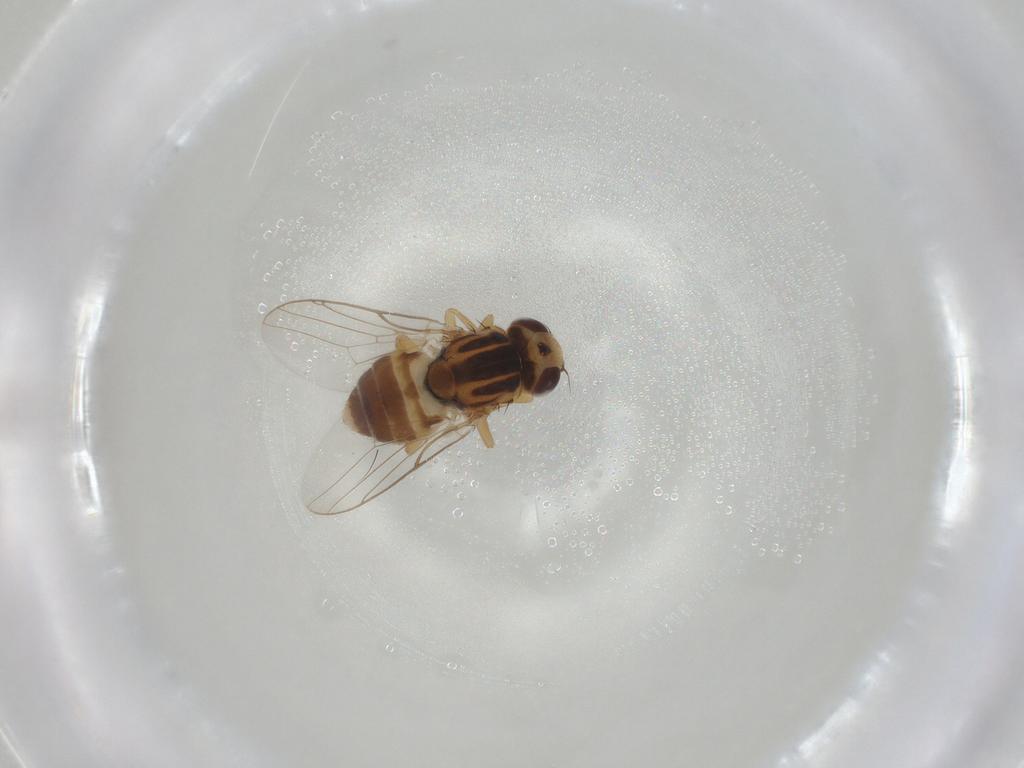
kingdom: Animalia
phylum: Arthropoda
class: Insecta
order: Diptera
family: Chloropidae
